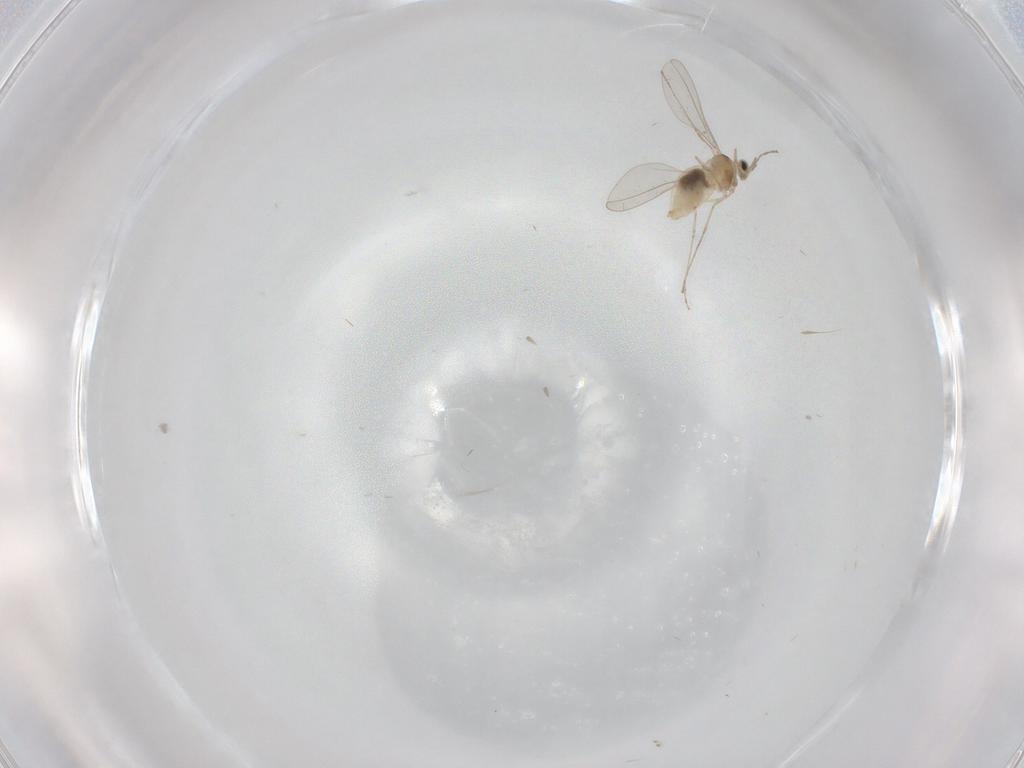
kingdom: Animalia
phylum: Arthropoda
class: Insecta
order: Diptera
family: Cecidomyiidae
